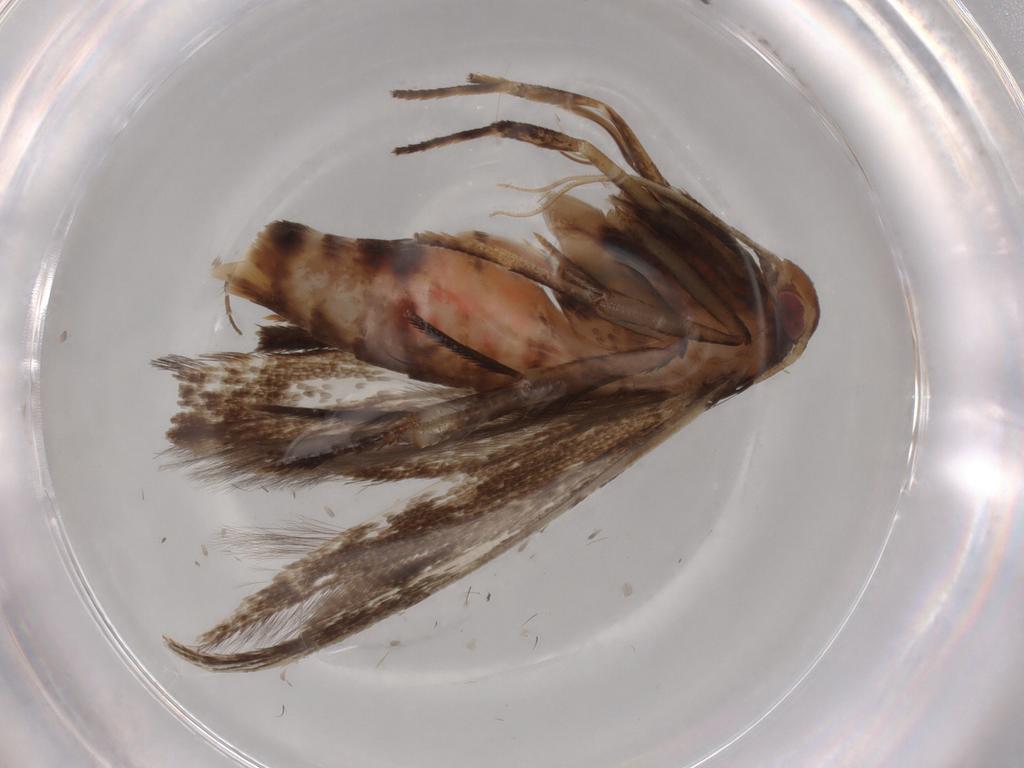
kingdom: Animalia
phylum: Arthropoda
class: Insecta
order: Lepidoptera
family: Cosmopterigidae
